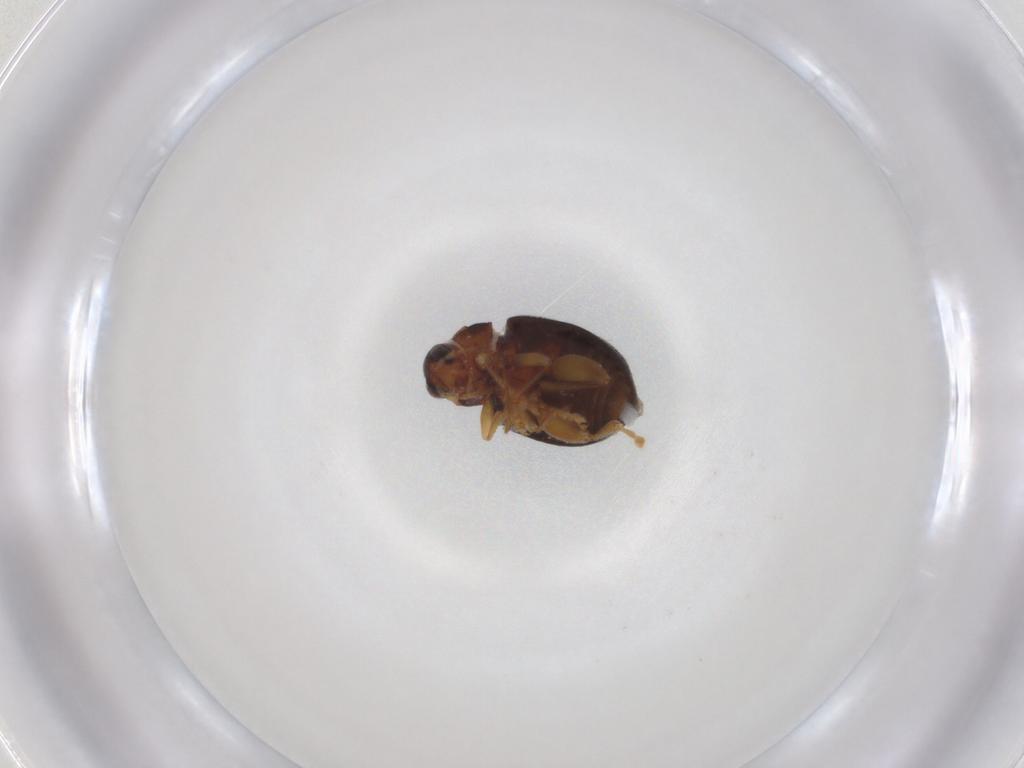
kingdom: Animalia
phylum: Arthropoda
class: Insecta
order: Coleoptera
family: Chrysomelidae
